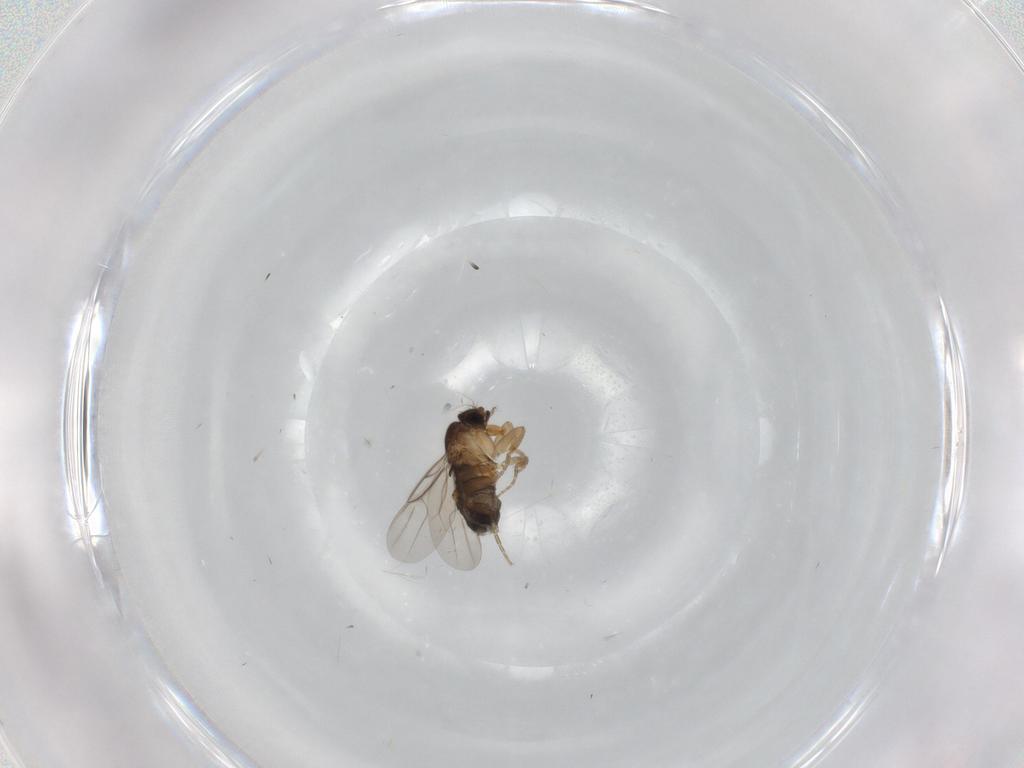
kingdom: Animalia
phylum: Arthropoda
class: Insecta
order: Diptera
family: Phoridae
